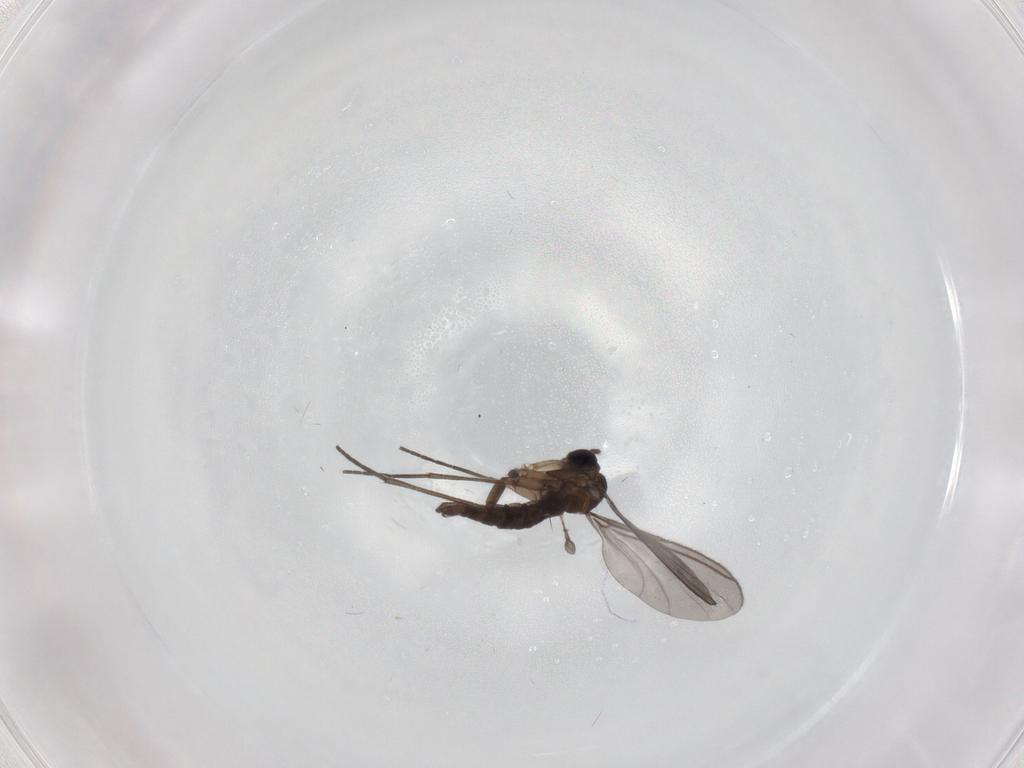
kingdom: Animalia
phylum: Arthropoda
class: Insecta
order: Diptera
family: Sciaridae
